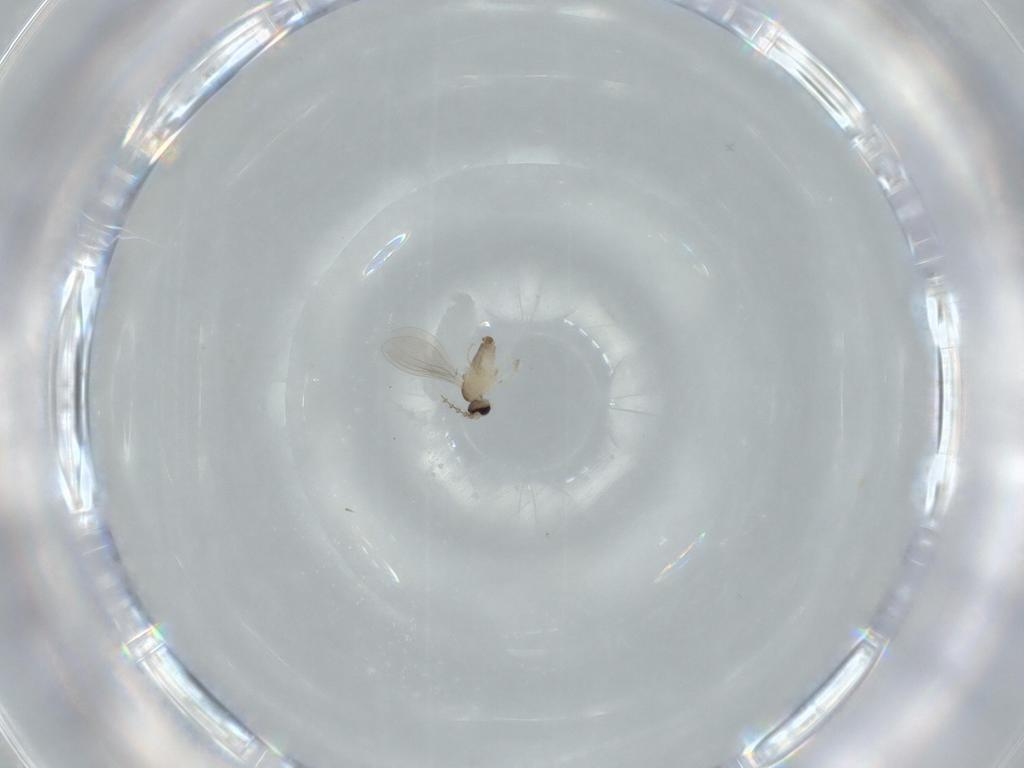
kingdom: Animalia
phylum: Arthropoda
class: Insecta
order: Diptera
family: Cecidomyiidae
